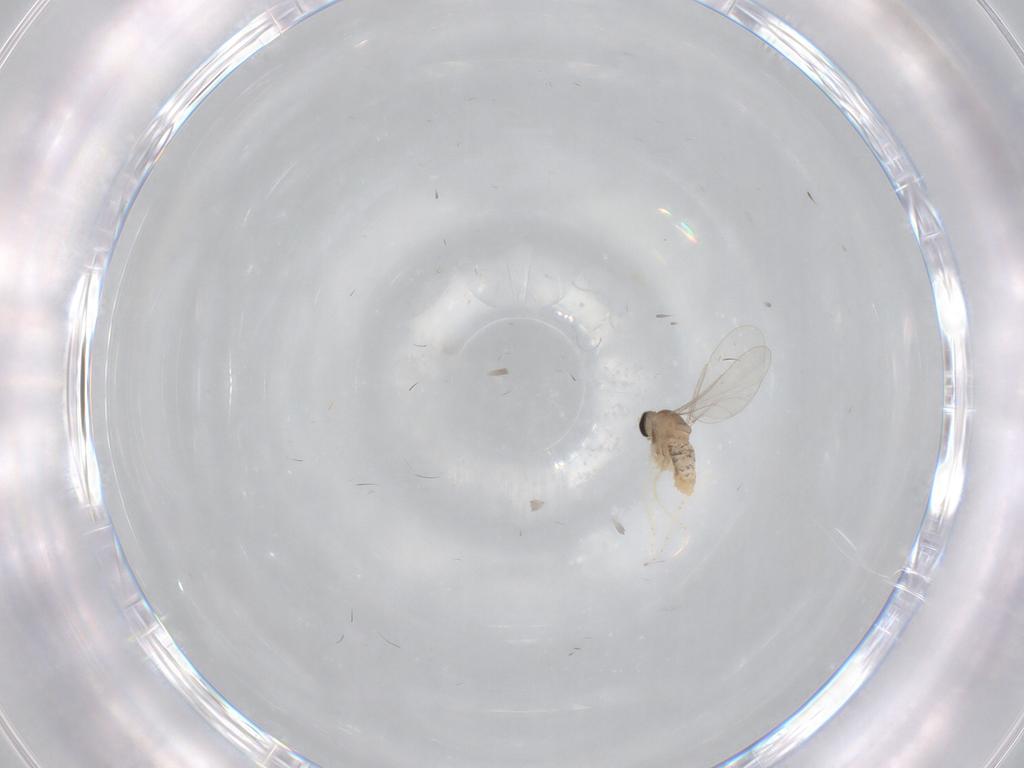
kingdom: Animalia
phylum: Arthropoda
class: Insecta
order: Diptera
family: Cecidomyiidae
